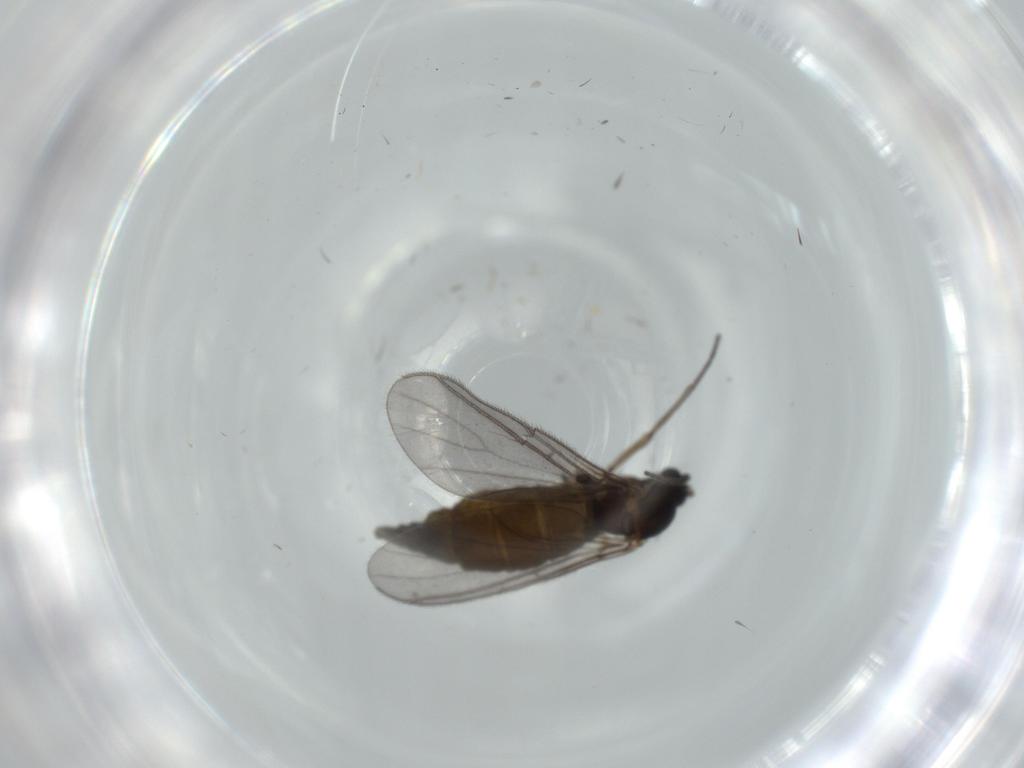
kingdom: Animalia
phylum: Arthropoda
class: Insecta
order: Diptera
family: Sciaridae
